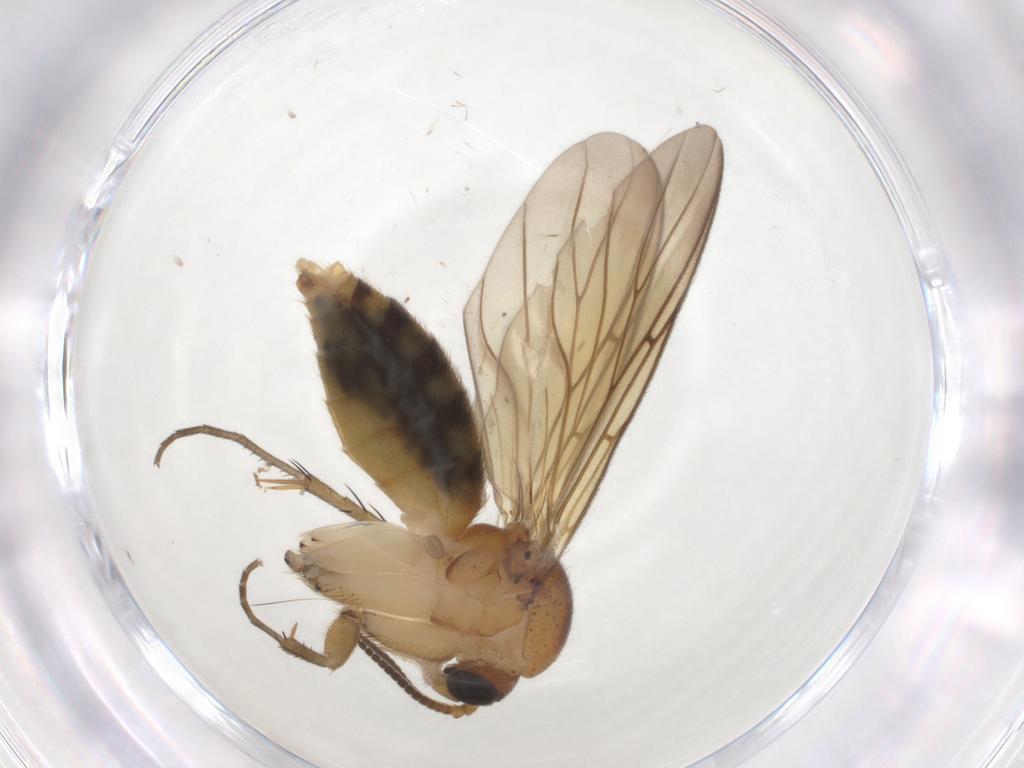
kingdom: Animalia
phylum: Arthropoda
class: Insecta
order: Diptera
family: Mycetophilidae
